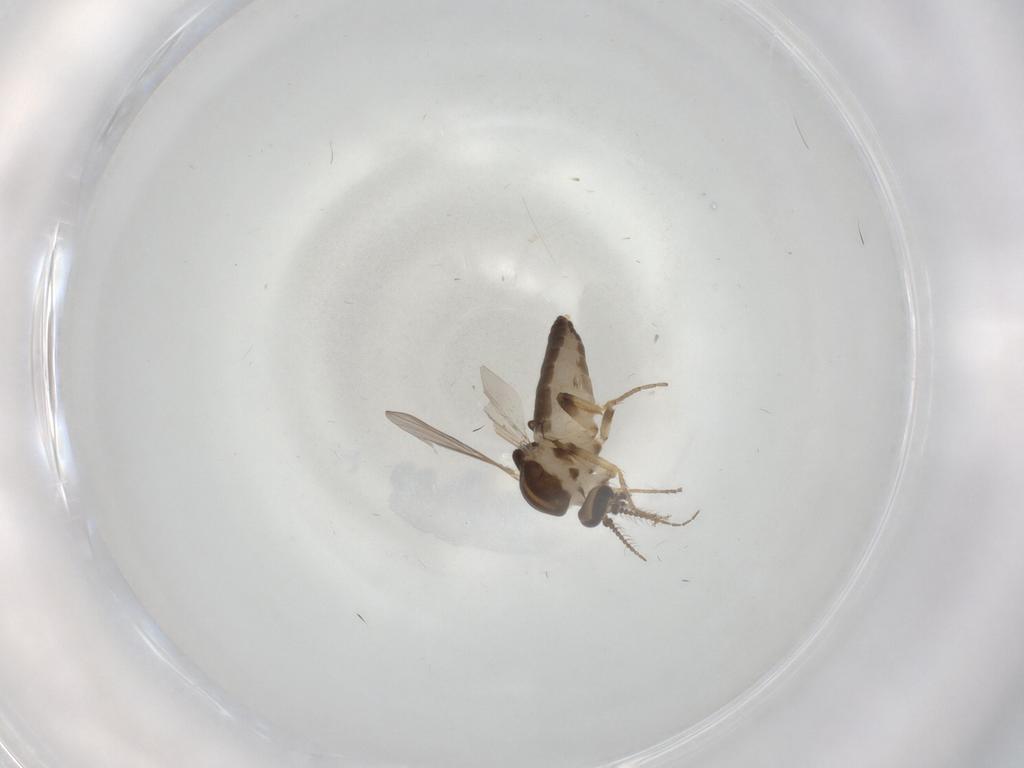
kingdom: Animalia
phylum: Arthropoda
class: Insecta
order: Diptera
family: Ceratopogonidae
